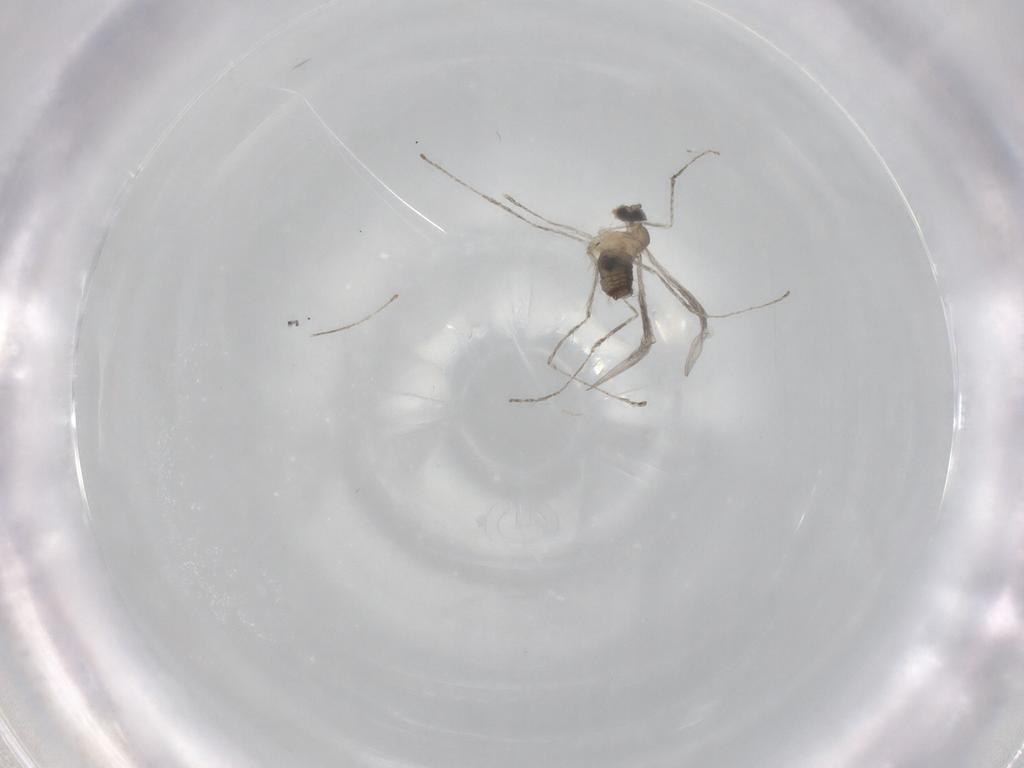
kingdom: Animalia
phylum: Arthropoda
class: Insecta
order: Diptera
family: Cecidomyiidae
